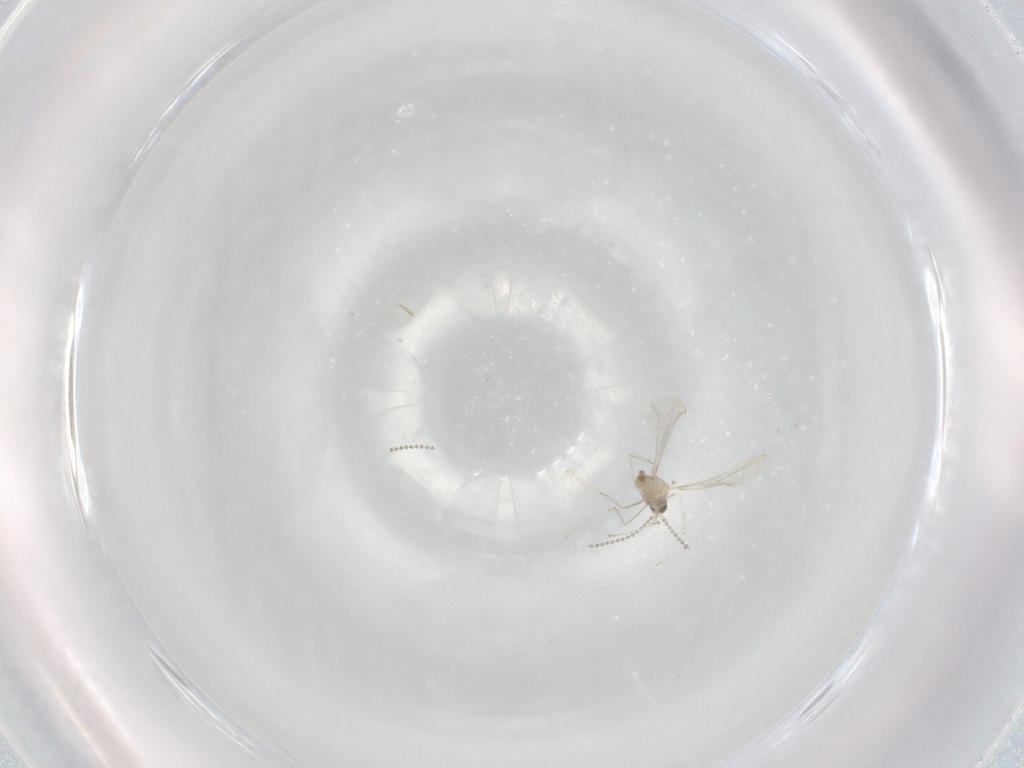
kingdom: Animalia
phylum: Arthropoda
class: Insecta
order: Diptera
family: Cecidomyiidae
